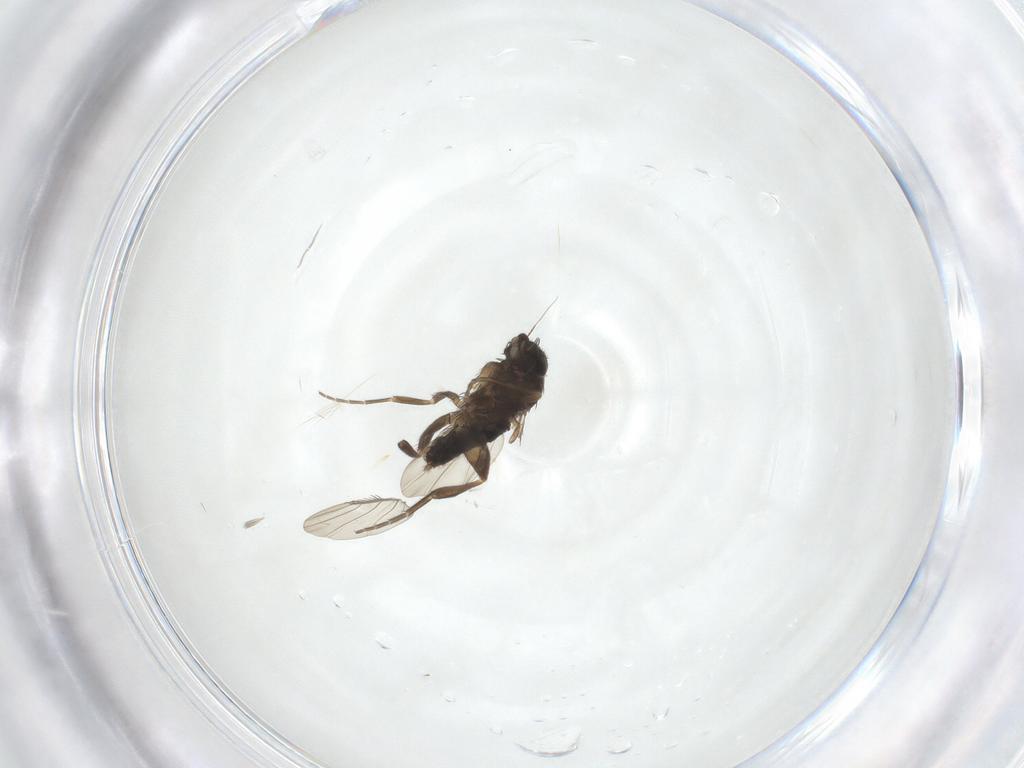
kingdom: Animalia
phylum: Arthropoda
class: Insecta
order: Diptera
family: Phoridae
